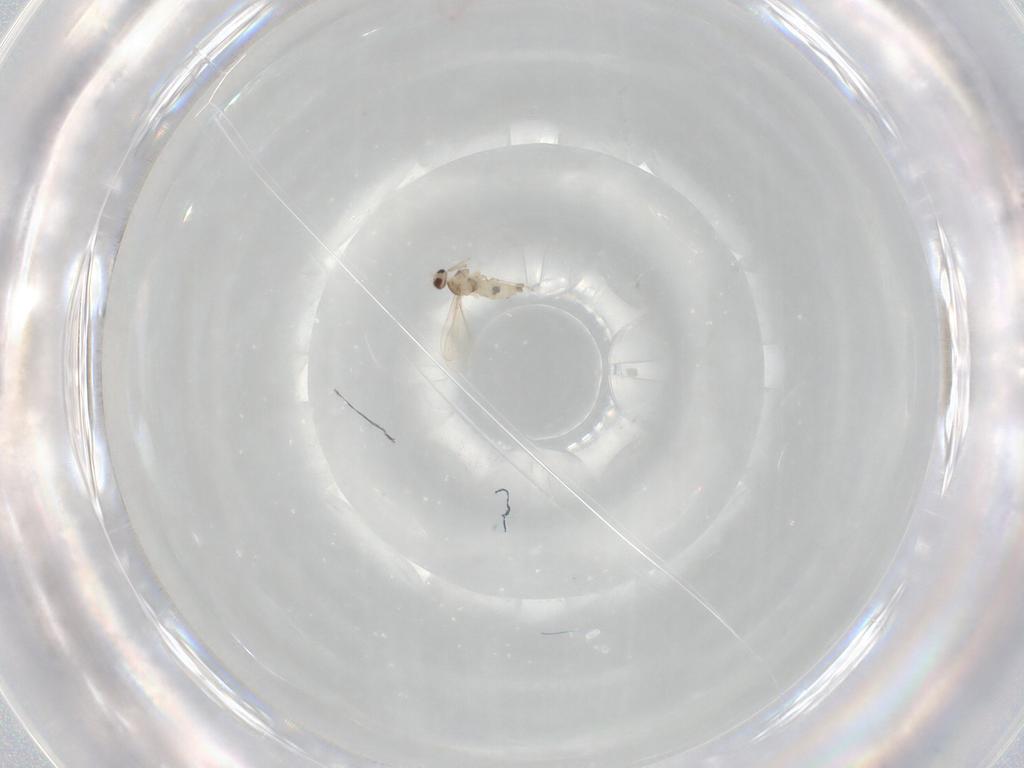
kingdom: Animalia
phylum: Arthropoda
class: Insecta
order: Diptera
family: Cecidomyiidae
